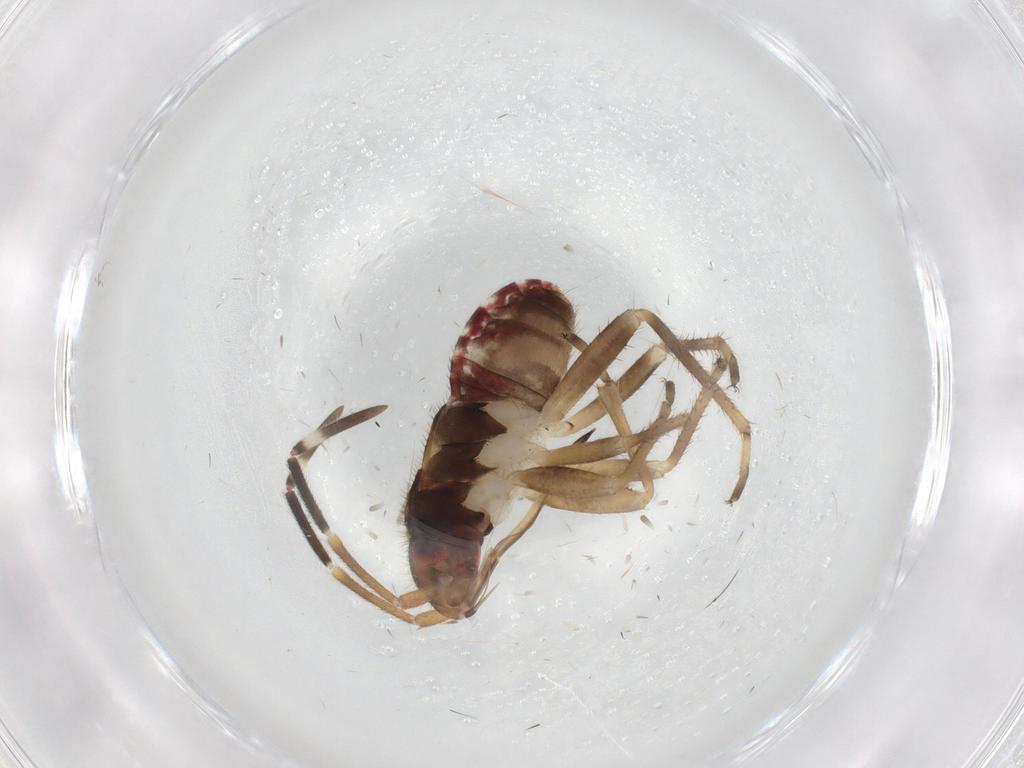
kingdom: Animalia
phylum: Arthropoda
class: Insecta
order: Hemiptera
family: Rhyparochromidae
